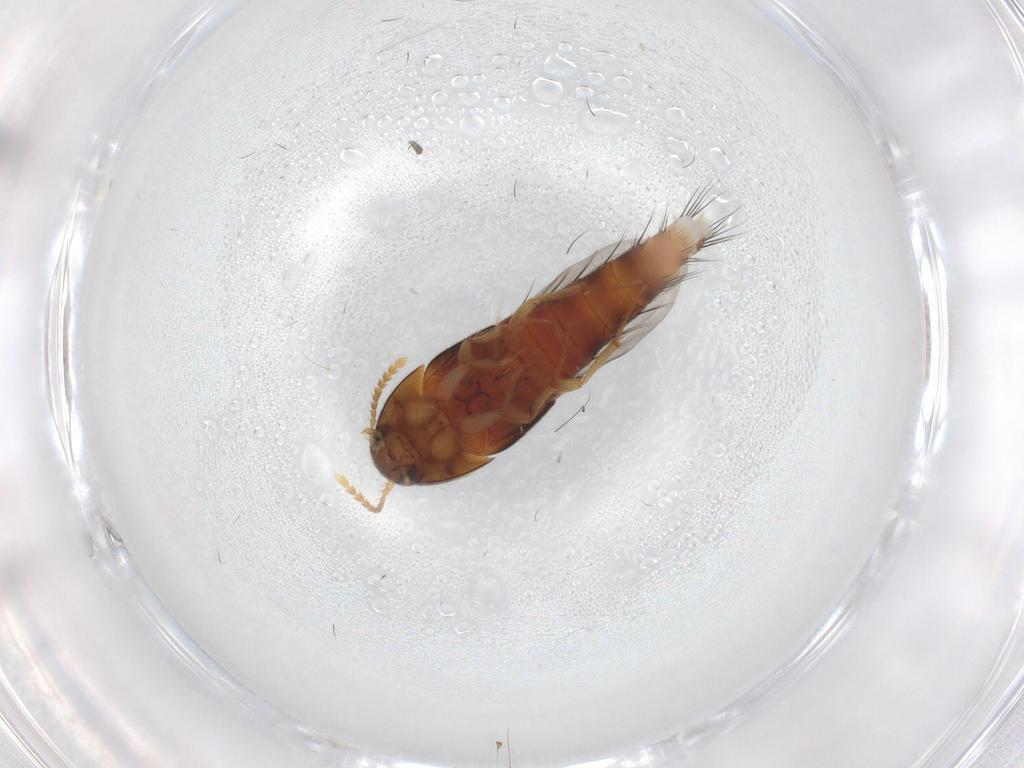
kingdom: Animalia
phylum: Arthropoda
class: Insecta
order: Coleoptera
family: Staphylinidae
